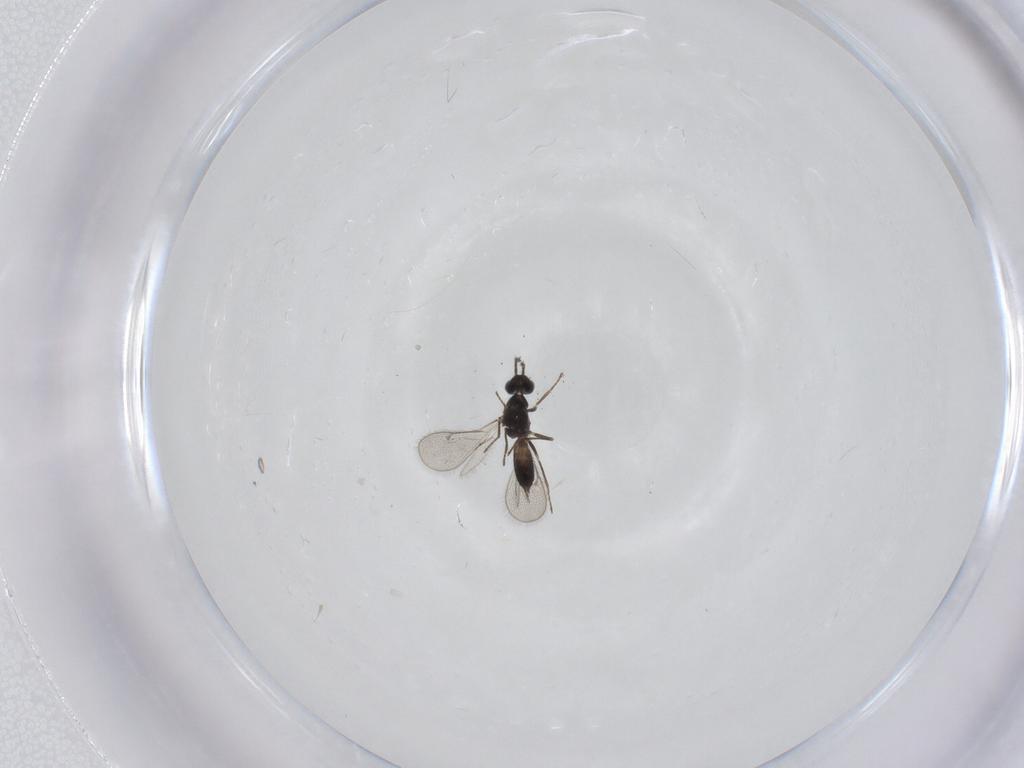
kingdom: Animalia
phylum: Arthropoda
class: Insecta
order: Hymenoptera
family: Eulophidae
